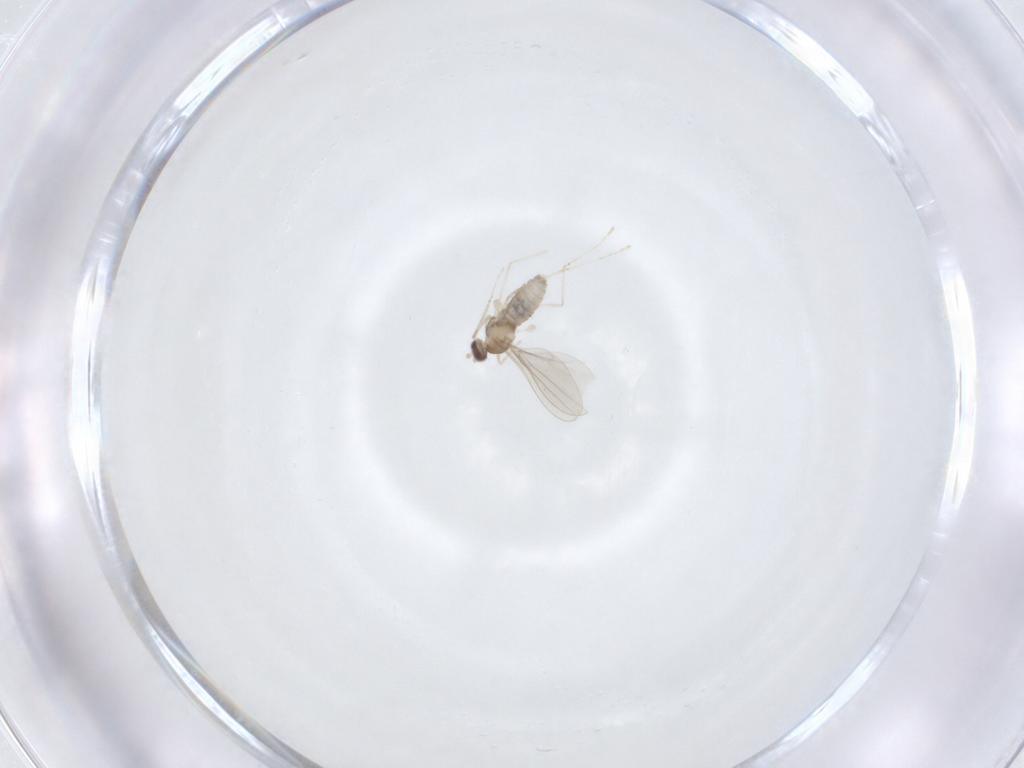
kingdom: Animalia
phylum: Arthropoda
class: Insecta
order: Diptera
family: Cecidomyiidae
